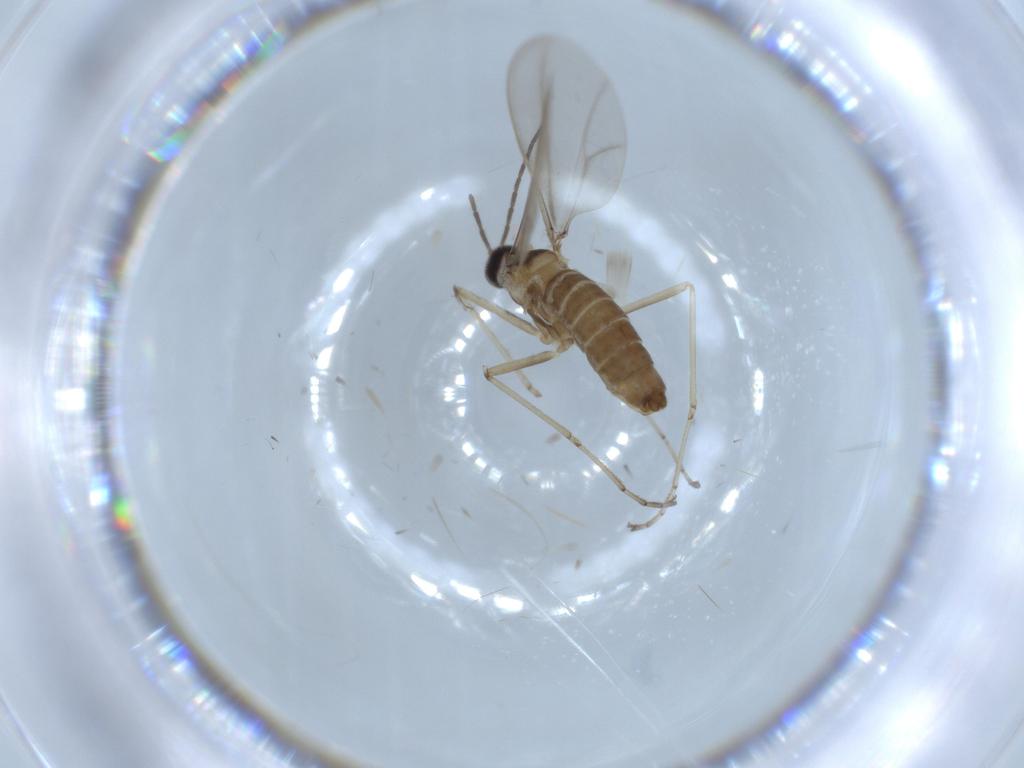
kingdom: Animalia
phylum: Arthropoda
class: Insecta
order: Diptera
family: Cecidomyiidae
